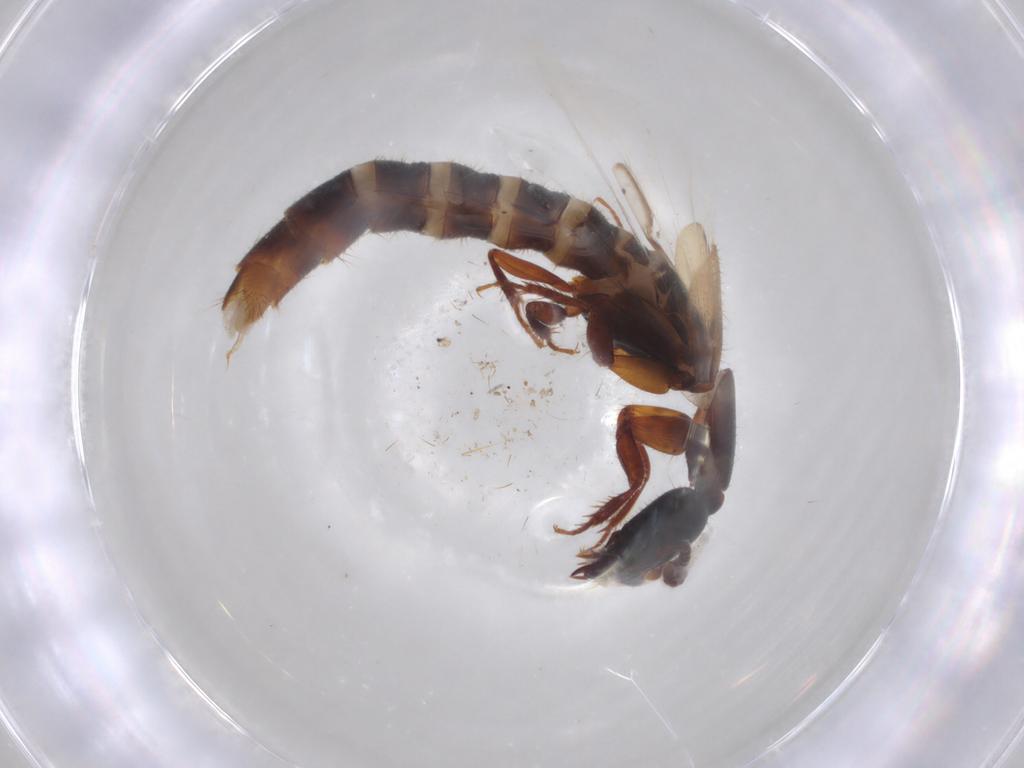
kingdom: Animalia
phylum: Arthropoda
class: Insecta
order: Coleoptera
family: Staphylinidae
